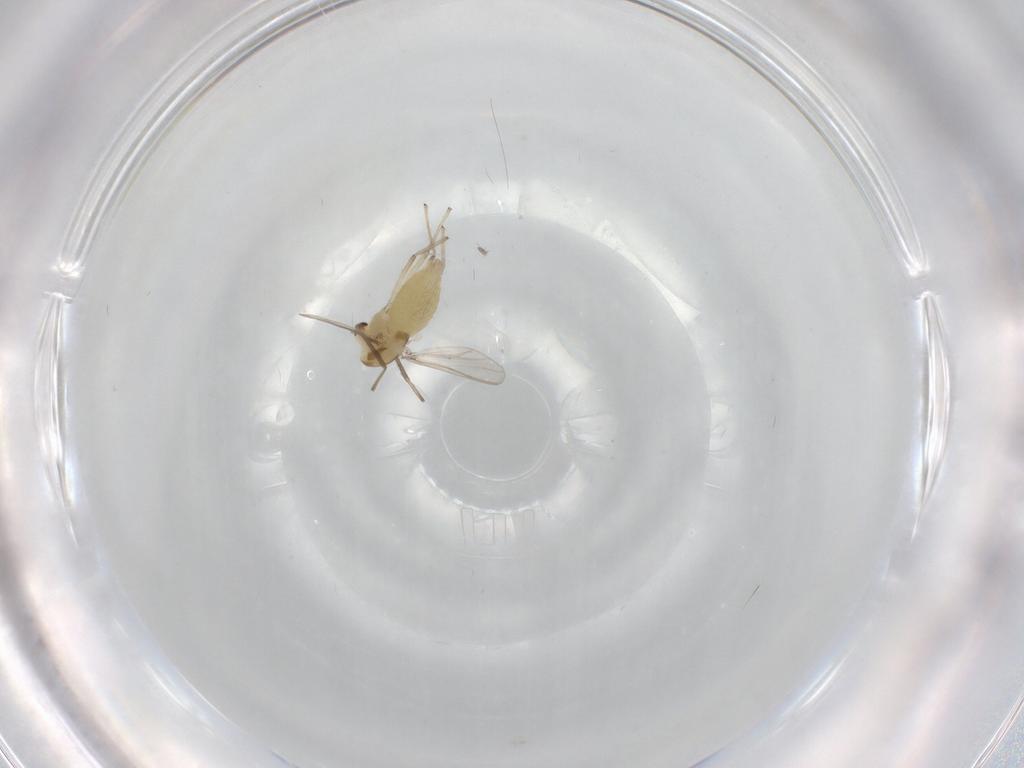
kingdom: Animalia
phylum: Arthropoda
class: Insecta
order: Diptera
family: Chironomidae
